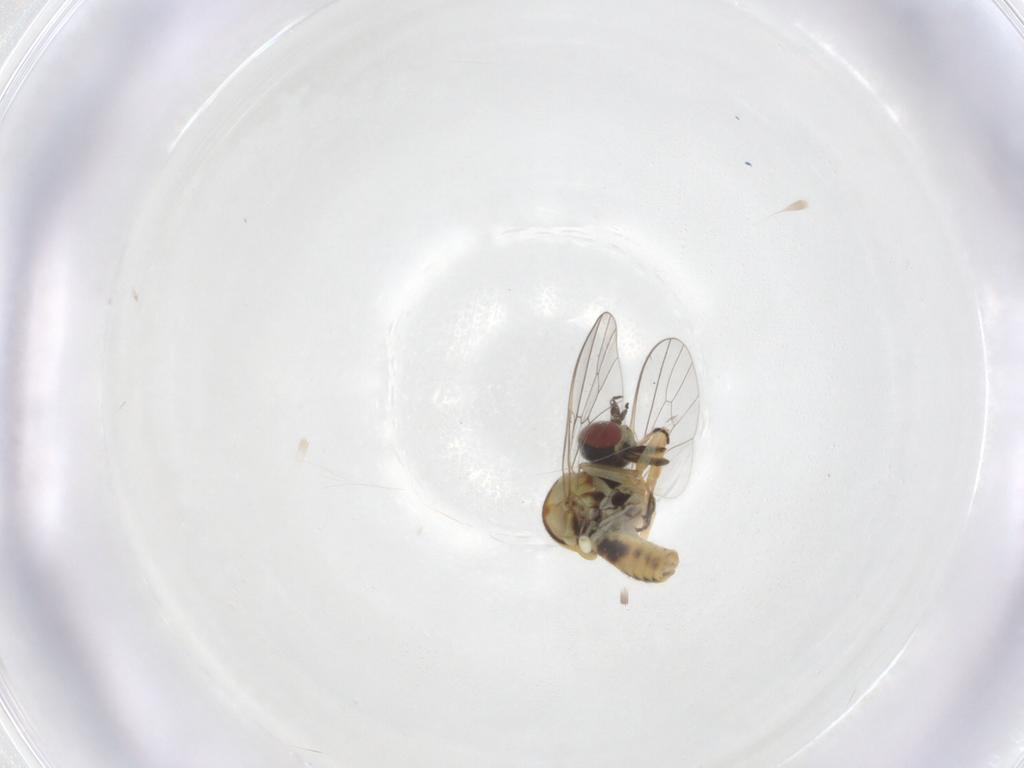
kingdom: Animalia
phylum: Arthropoda
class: Insecta
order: Diptera
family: Bombyliidae
